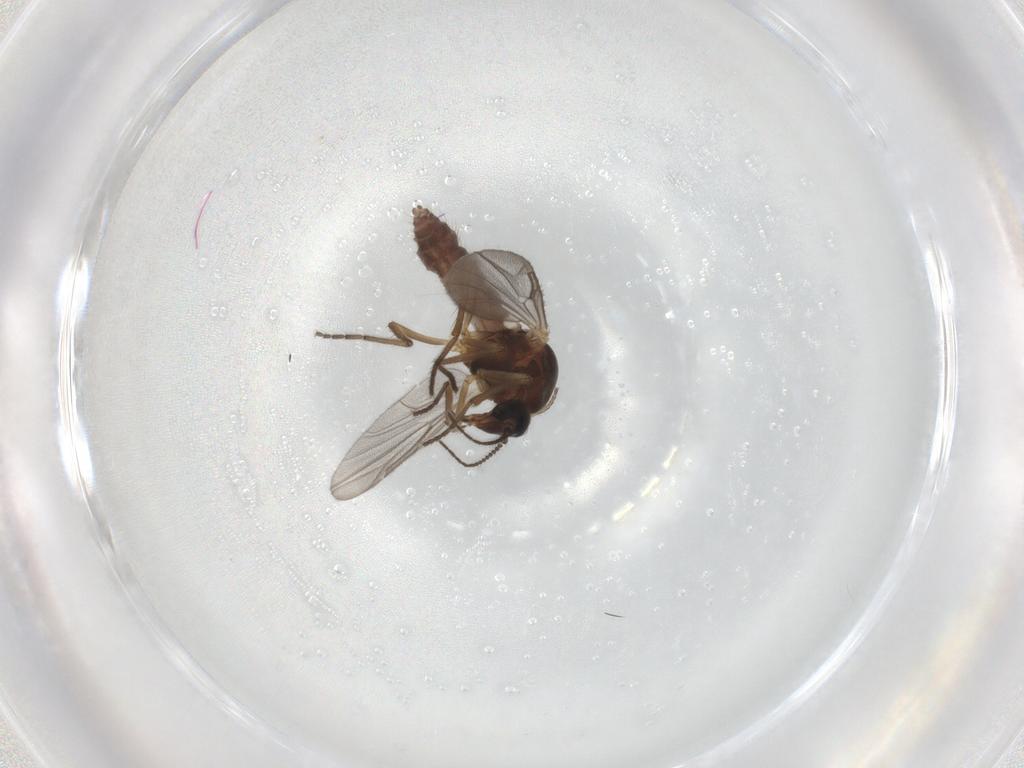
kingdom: Animalia
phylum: Arthropoda
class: Insecta
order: Diptera
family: Ceratopogonidae
